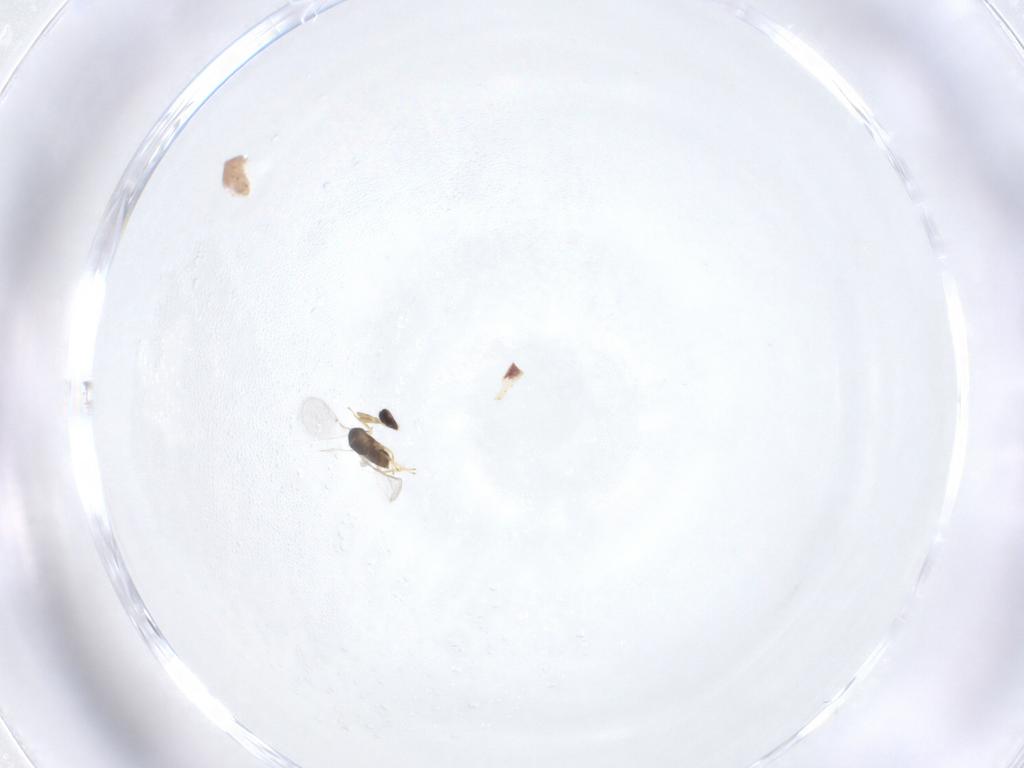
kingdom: Animalia
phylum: Arthropoda
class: Insecta
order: Hymenoptera
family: Encyrtidae
